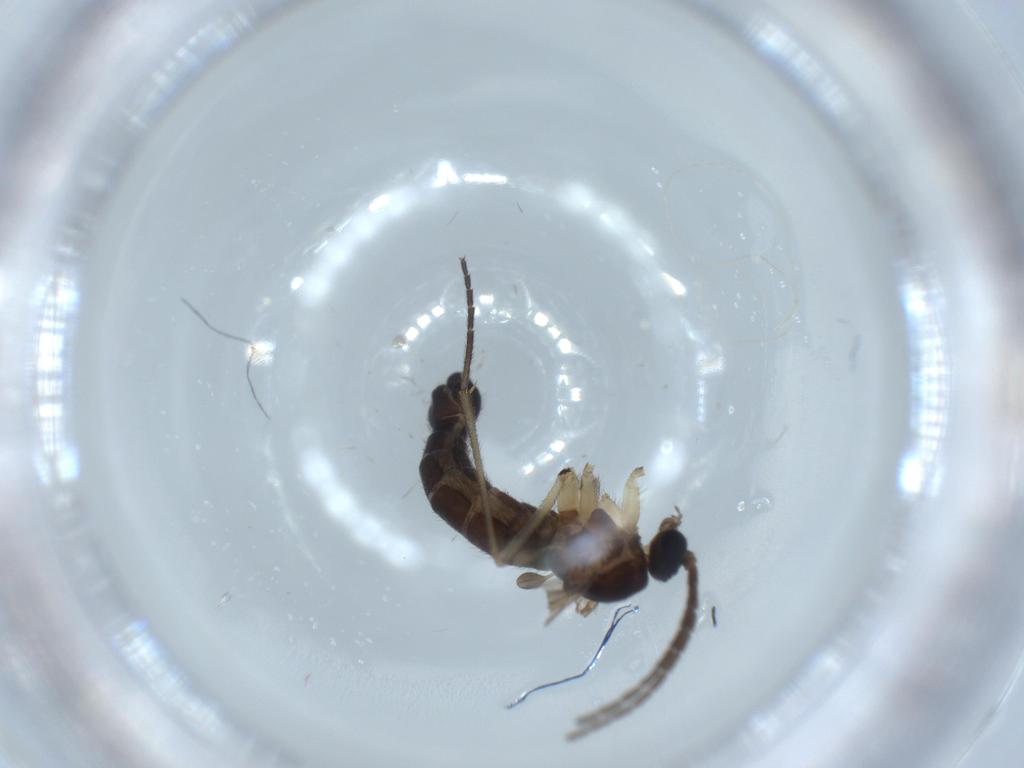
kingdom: Animalia
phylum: Arthropoda
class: Insecta
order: Diptera
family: Sciaridae
